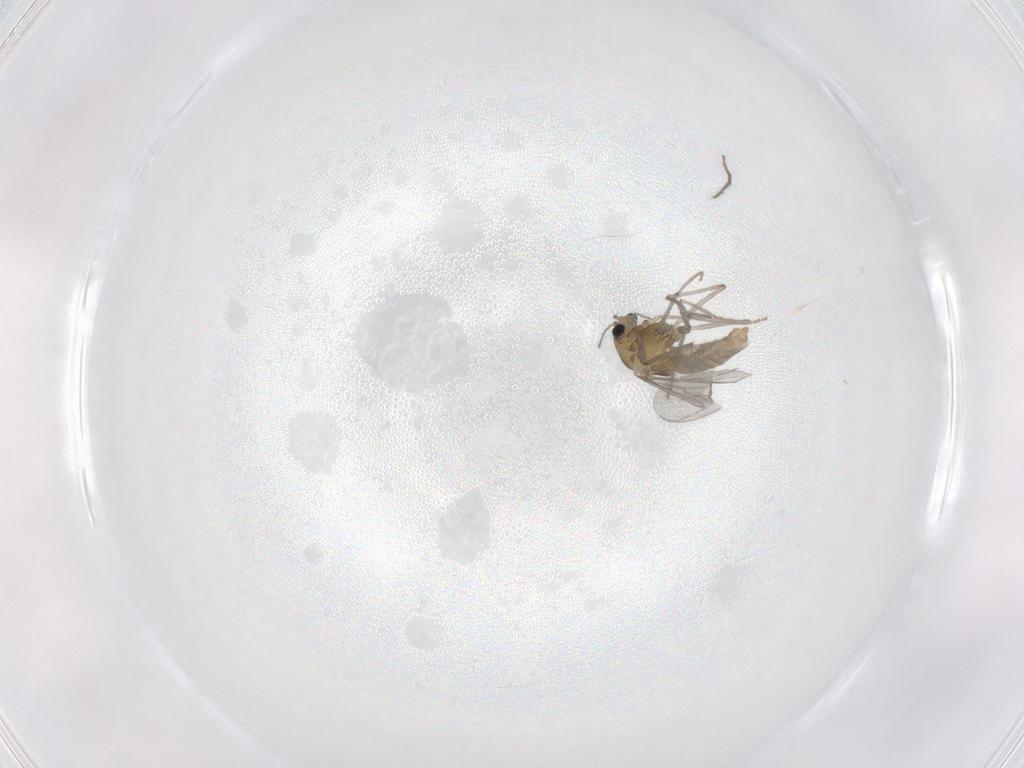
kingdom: Animalia
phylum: Arthropoda
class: Insecta
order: Diptera
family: Chironomidae
